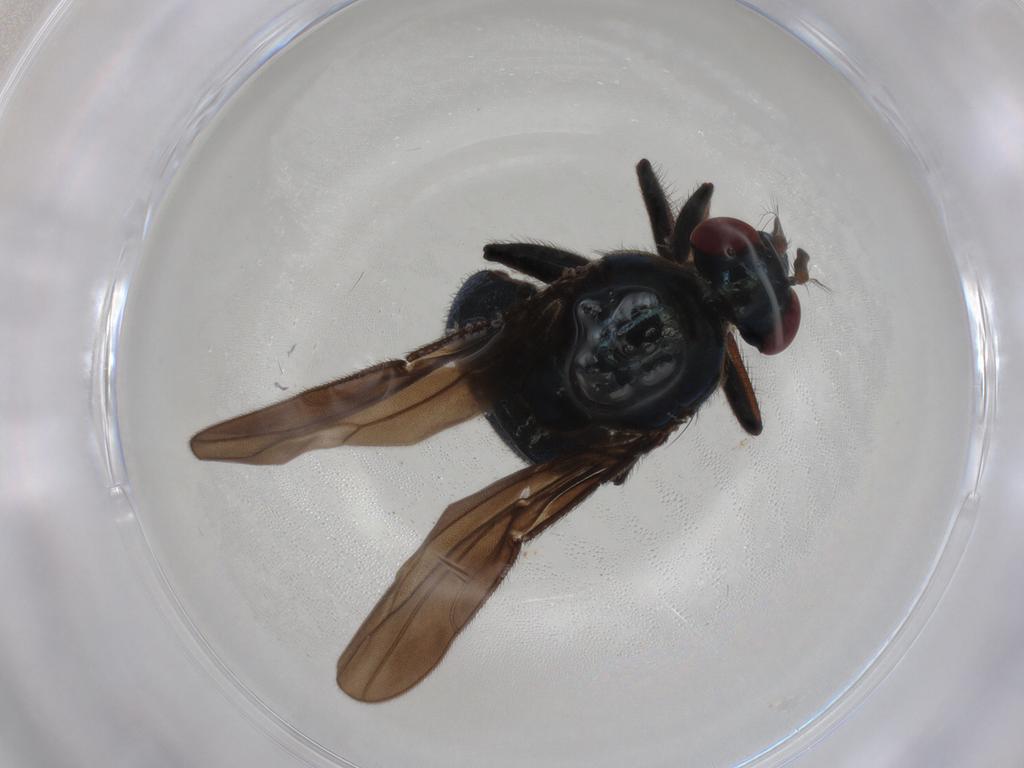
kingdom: Animalia
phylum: Arthropoda
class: Insecta
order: Diptera
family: Ephydridae
